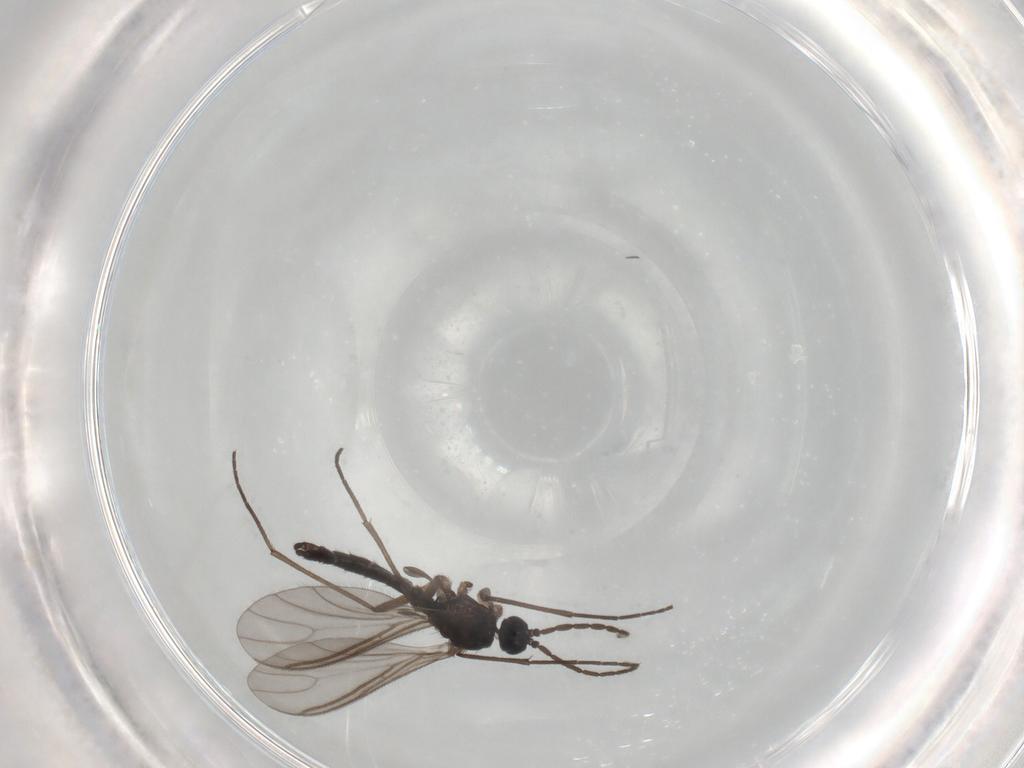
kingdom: Animalia
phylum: Arthropoda
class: Insecta
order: Diptera
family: Sciaridae
